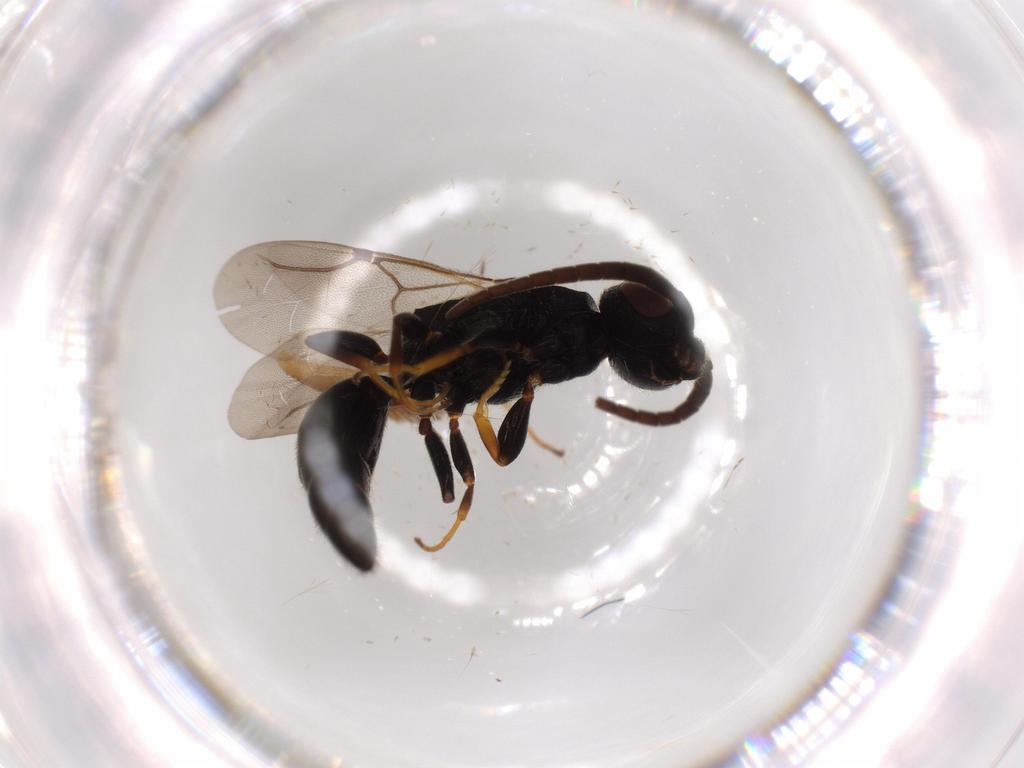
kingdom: Animalia
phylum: Arthropoda
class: Insecta
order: Hymenoptera
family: Bethylidae
